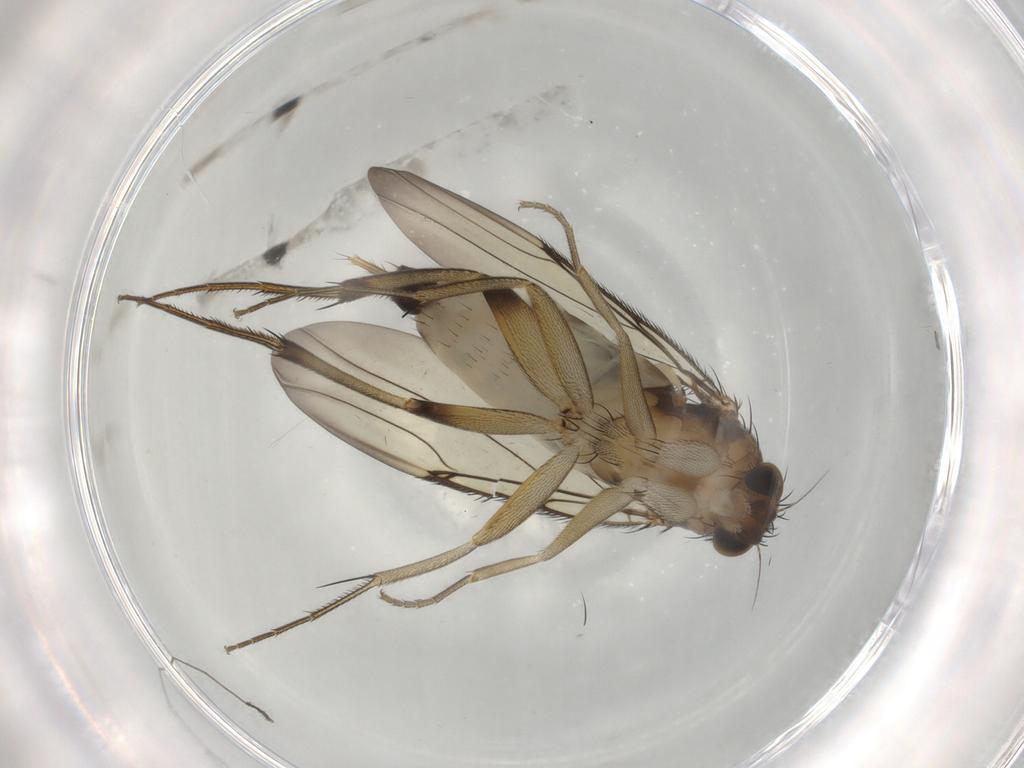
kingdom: Animalia
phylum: Arthropoda
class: Insecta
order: Diptera
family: Phoridae
